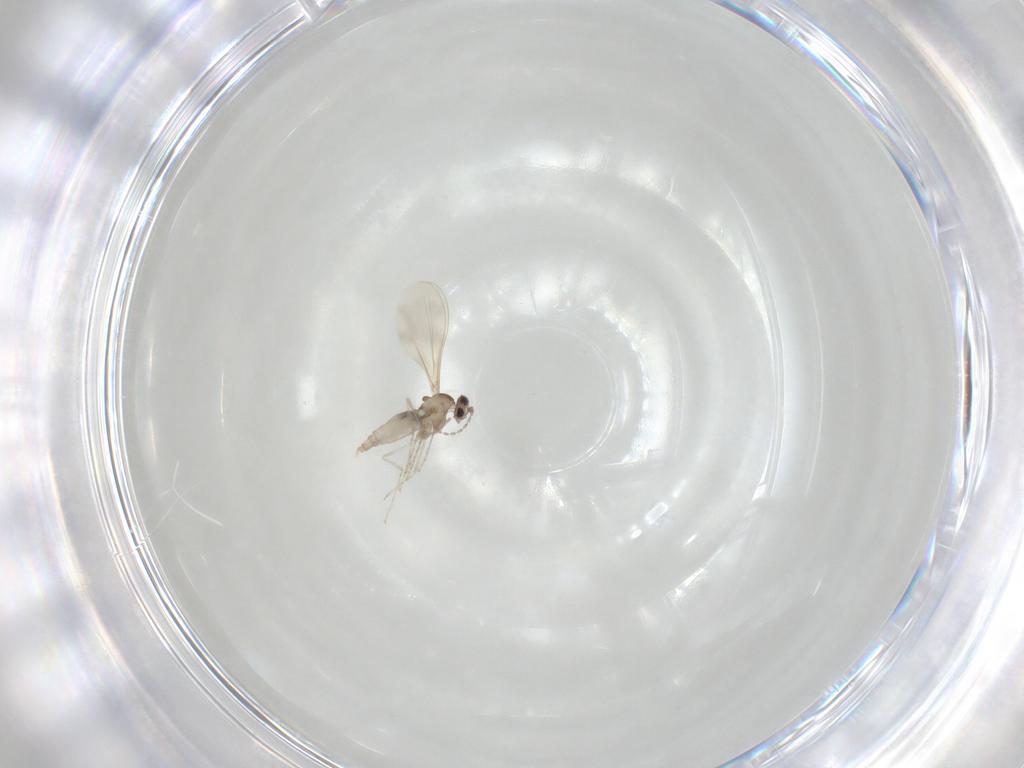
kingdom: Animalia
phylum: Arthropoda
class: Insecta
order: Diptera
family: Cecidomyiidae
